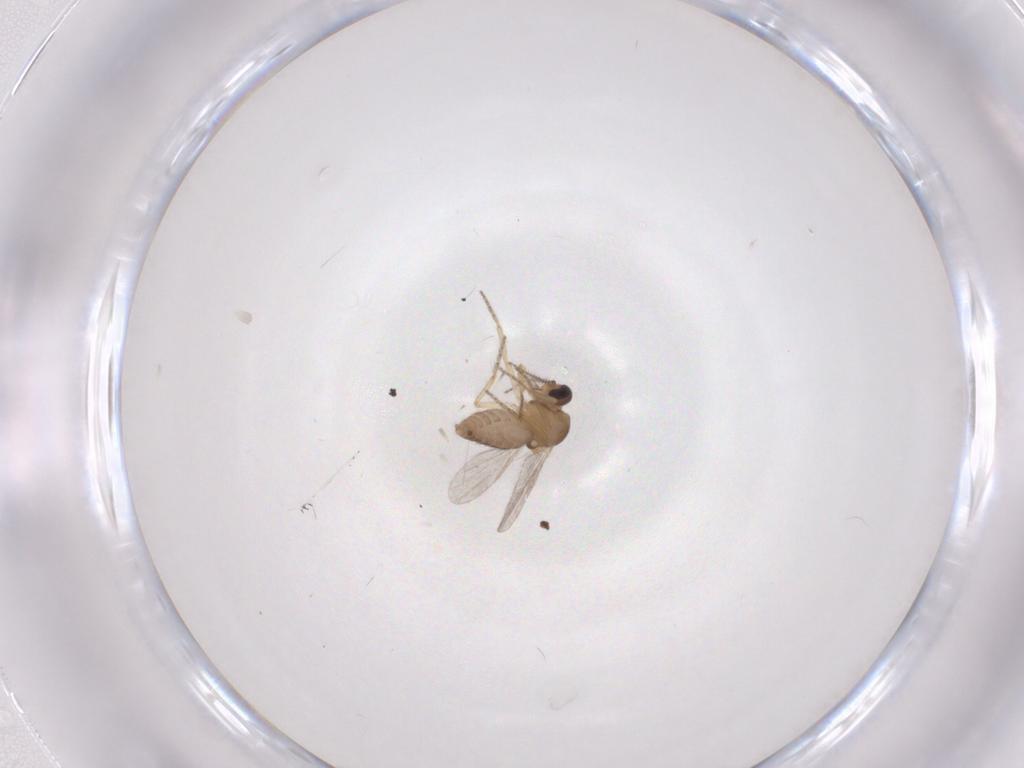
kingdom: Animalia
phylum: Arthropoda
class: Insecta
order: Diptera
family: Ceratopogonidae
